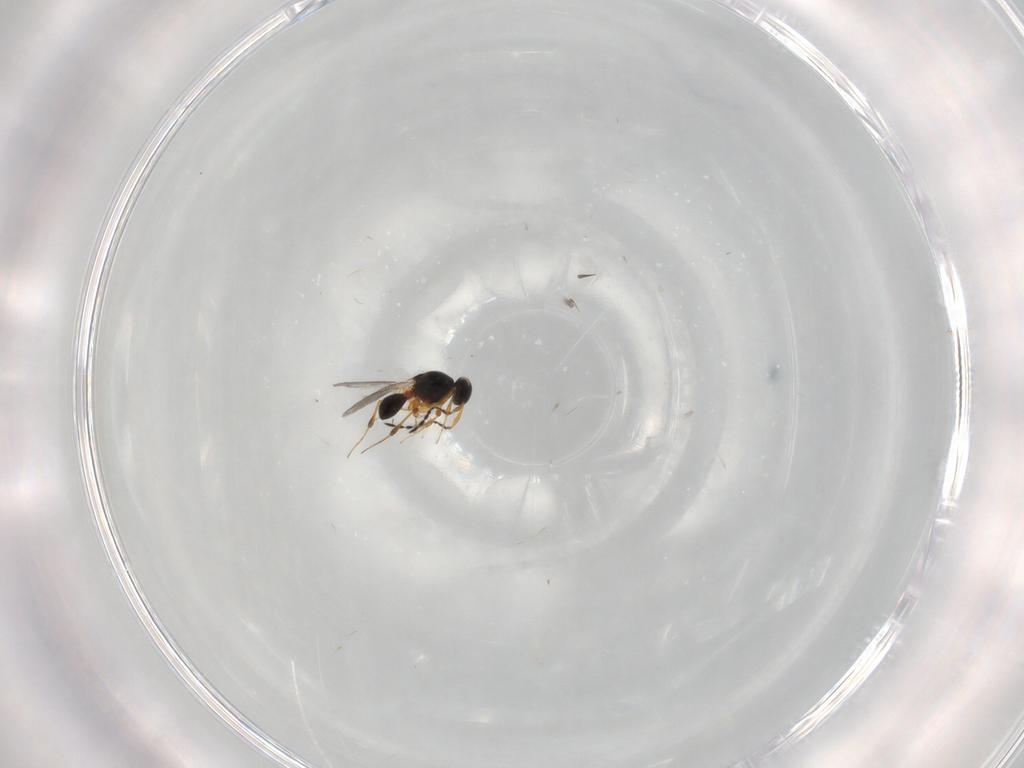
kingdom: Animalia
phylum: Arthropoda
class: Insecta
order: Hymenoptera
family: Platygastridae
